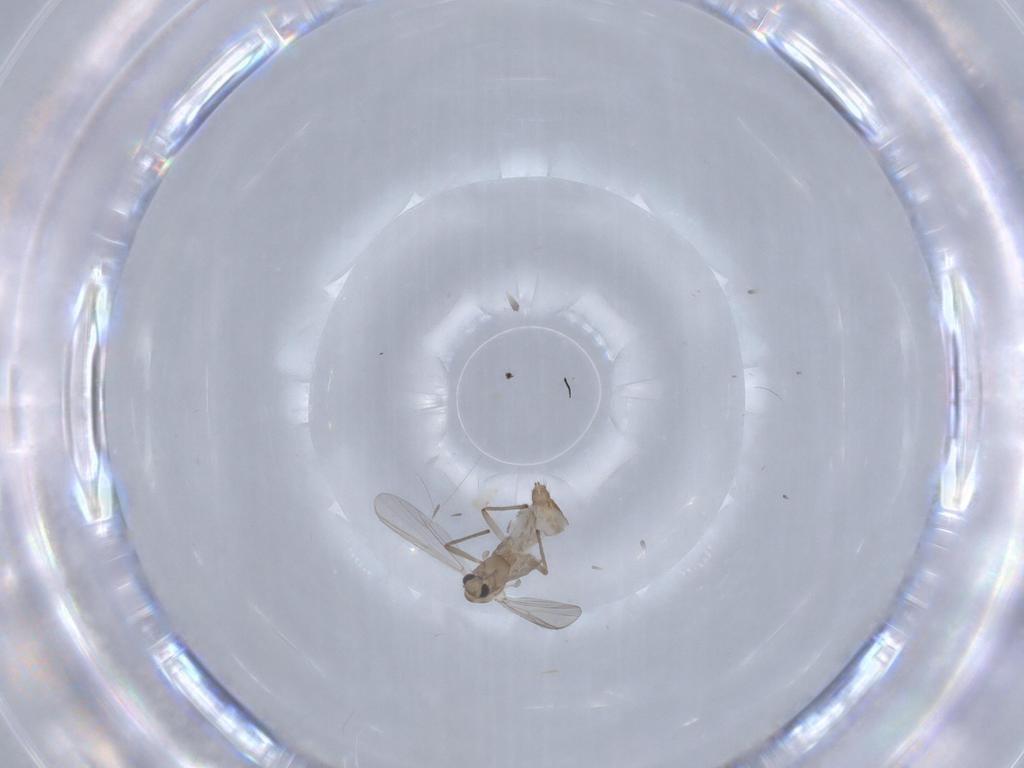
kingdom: Animalia
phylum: Arthropoda
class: Insecta
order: Diptera
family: Chironomidae
